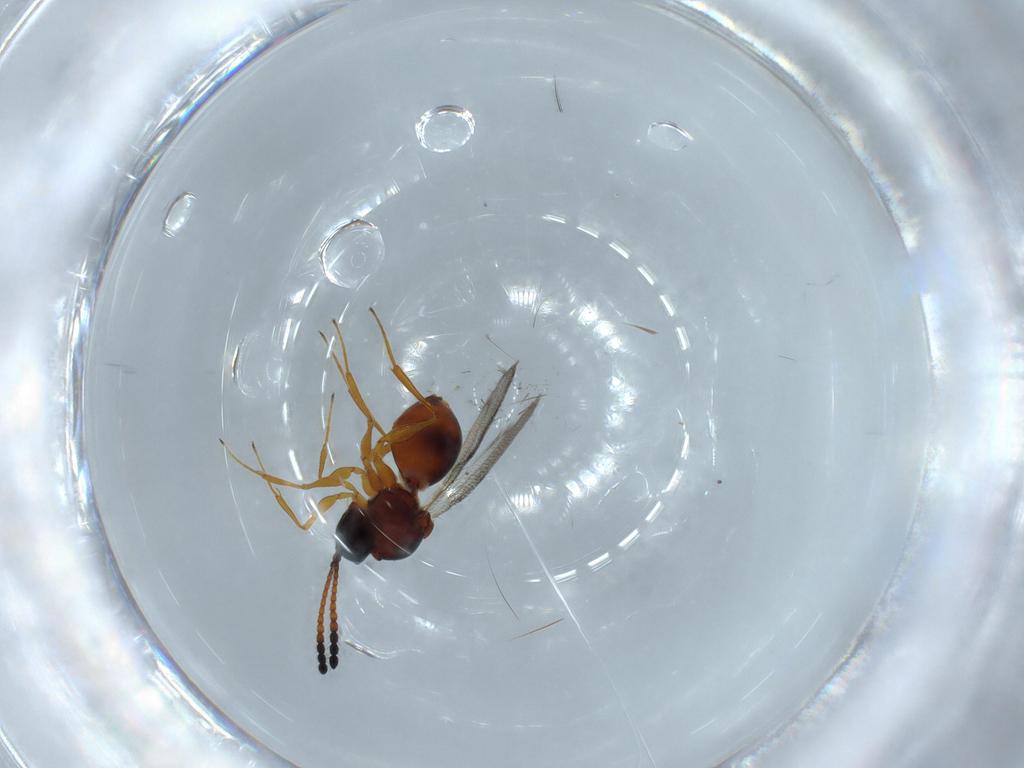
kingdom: Animalia
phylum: Arthropoda
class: Insecta
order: Hymenoptera
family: Figitidae
